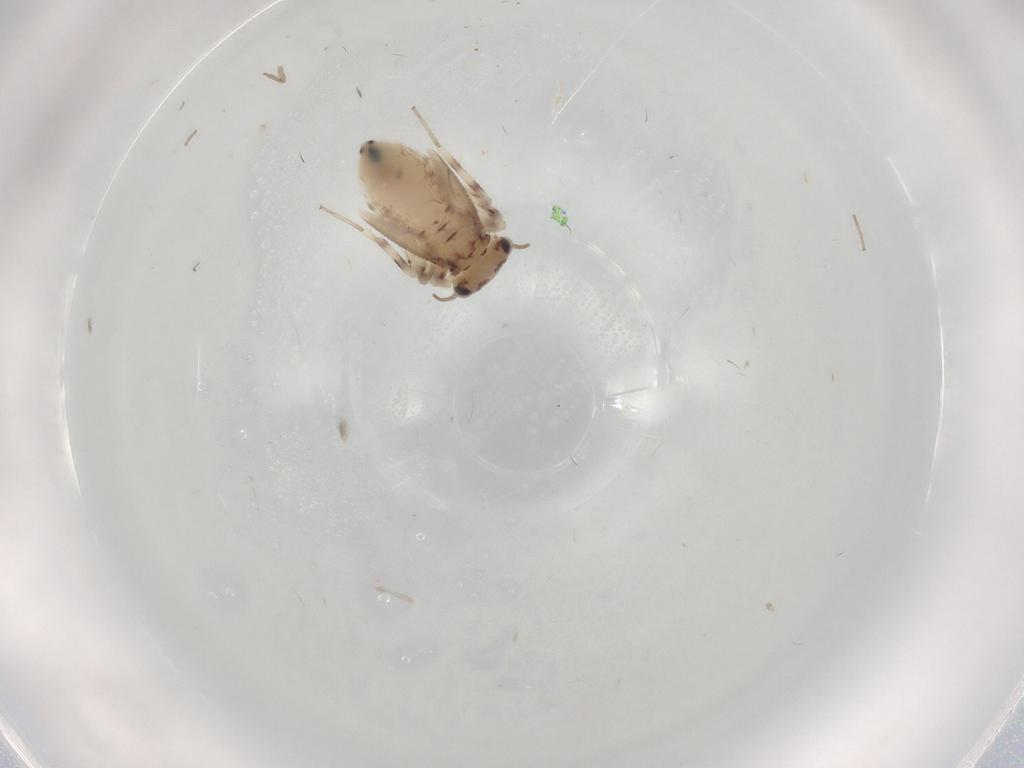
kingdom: Animalia
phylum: Arthropoda
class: Insecta
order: Psocodea
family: Lepidopsocidae
